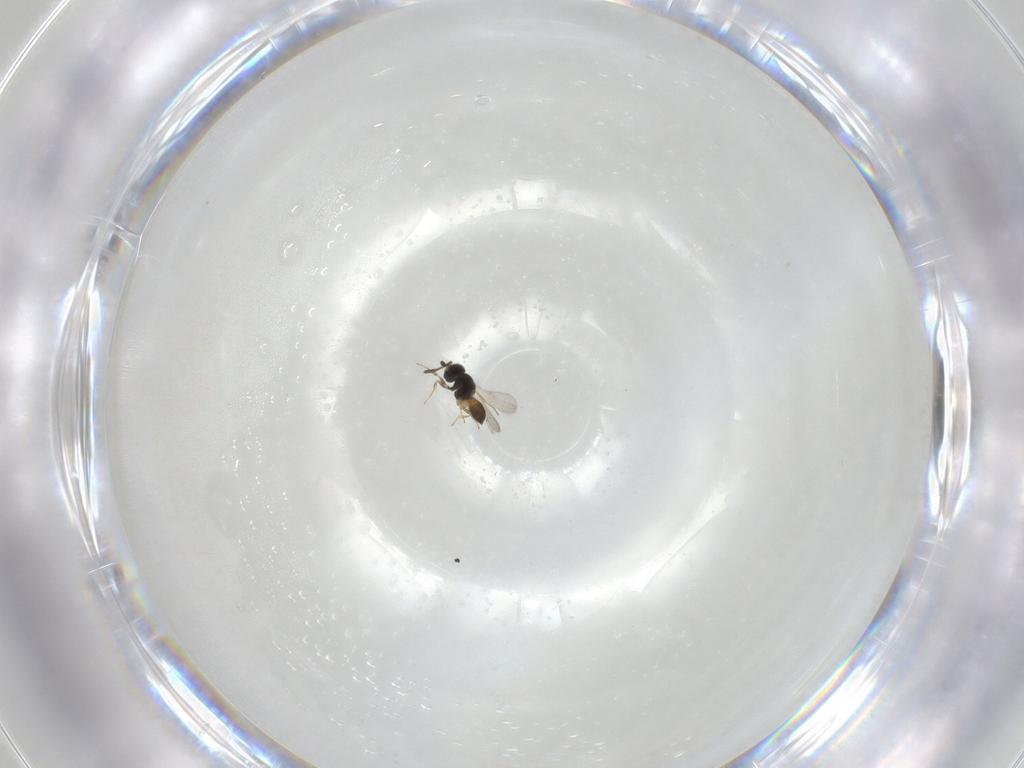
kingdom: Animalia
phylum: Arthropoda
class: Insecta
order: Hymenoptera
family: Scelionidae
